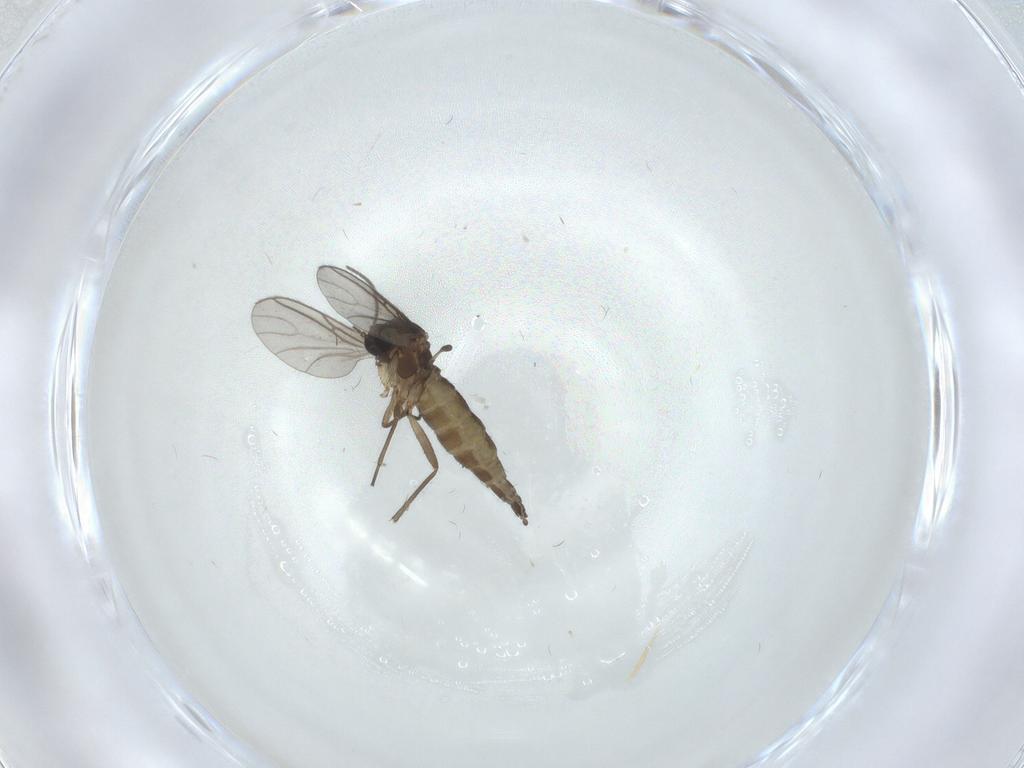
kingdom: Animalia
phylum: Arthropoda
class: Insecta
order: Diptera
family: Sciaridae
